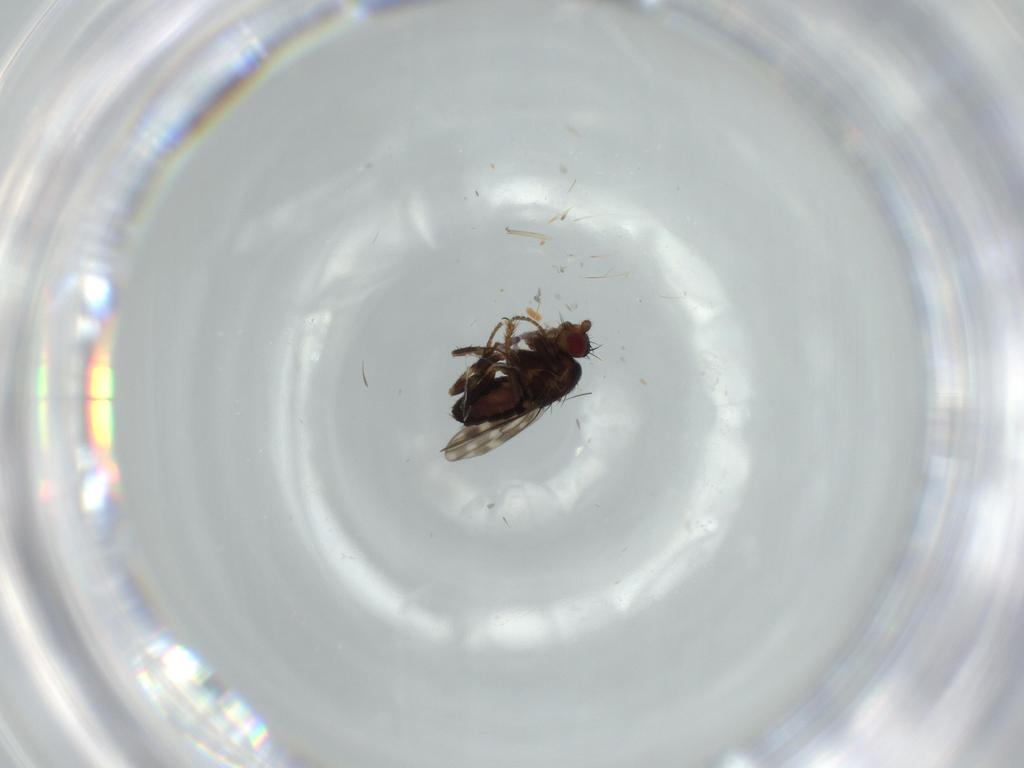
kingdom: Animalia
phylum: Arthropoda
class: Insecta
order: Diptera
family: Sphaeroceridae
